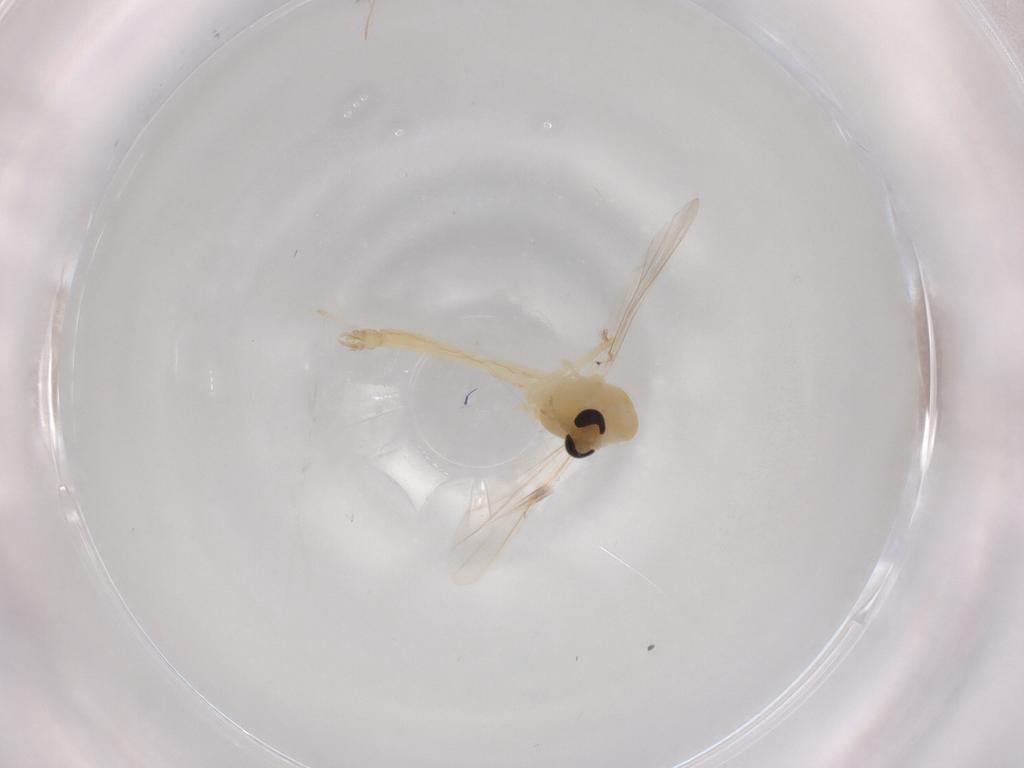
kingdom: Animalia
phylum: Arthropoda
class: Insecta
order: Diptera
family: Chironomidae
